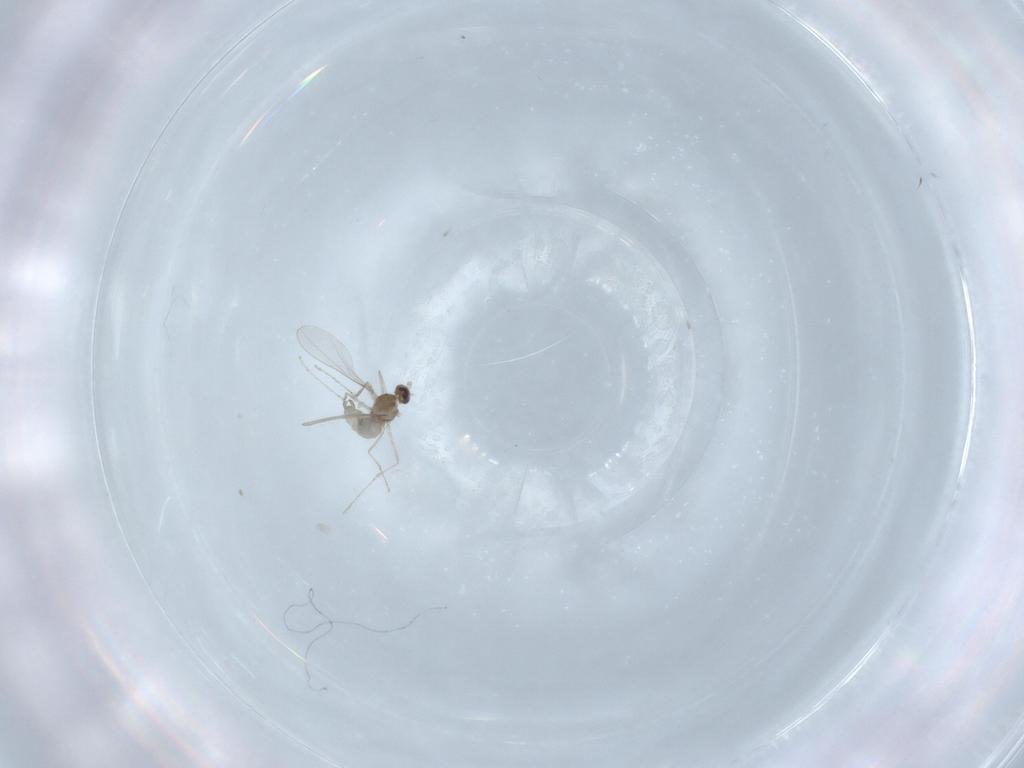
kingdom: Animalia
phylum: Arthropoda
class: Insecta
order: Diptera
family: Cecidomyiidae
